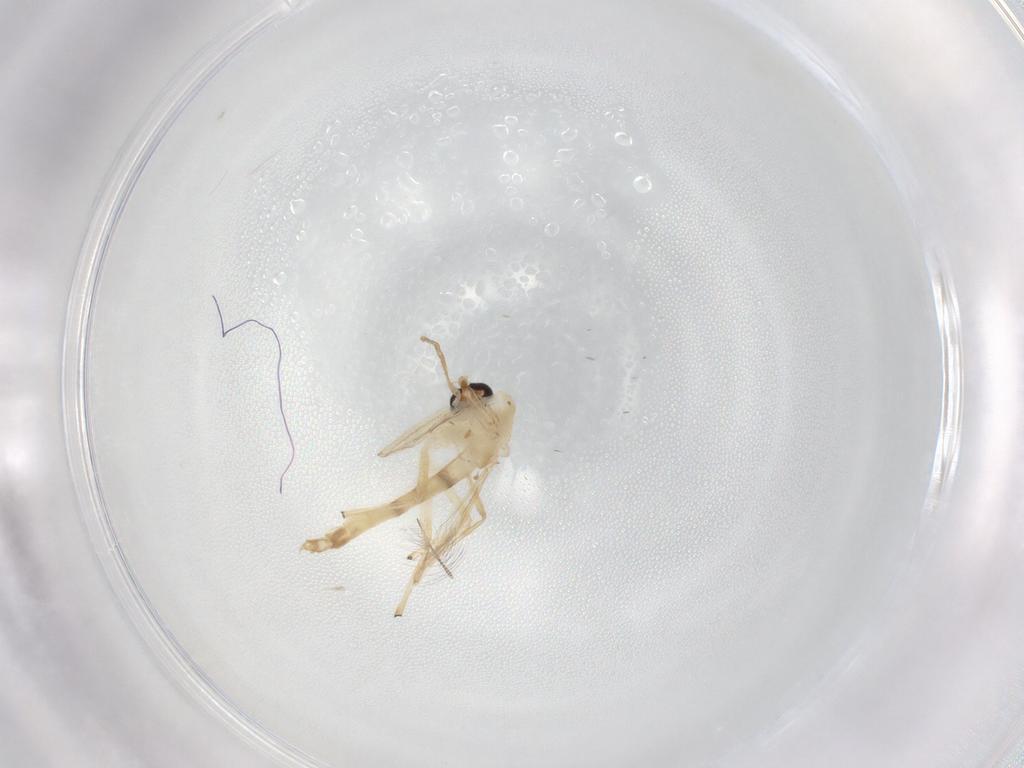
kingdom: Animalia
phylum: Arthropoda
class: Insecta
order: Diptera
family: Chironomidae
